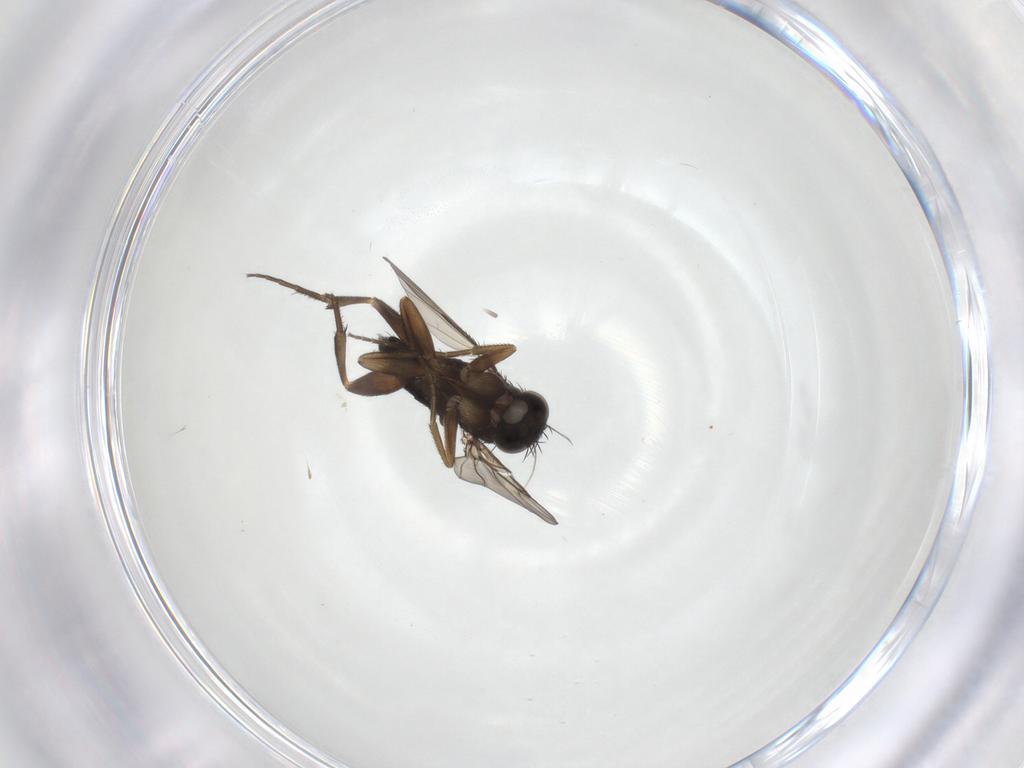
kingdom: Animalia
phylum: Arthropoda
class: Insecta
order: Diptera
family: Phoridae
